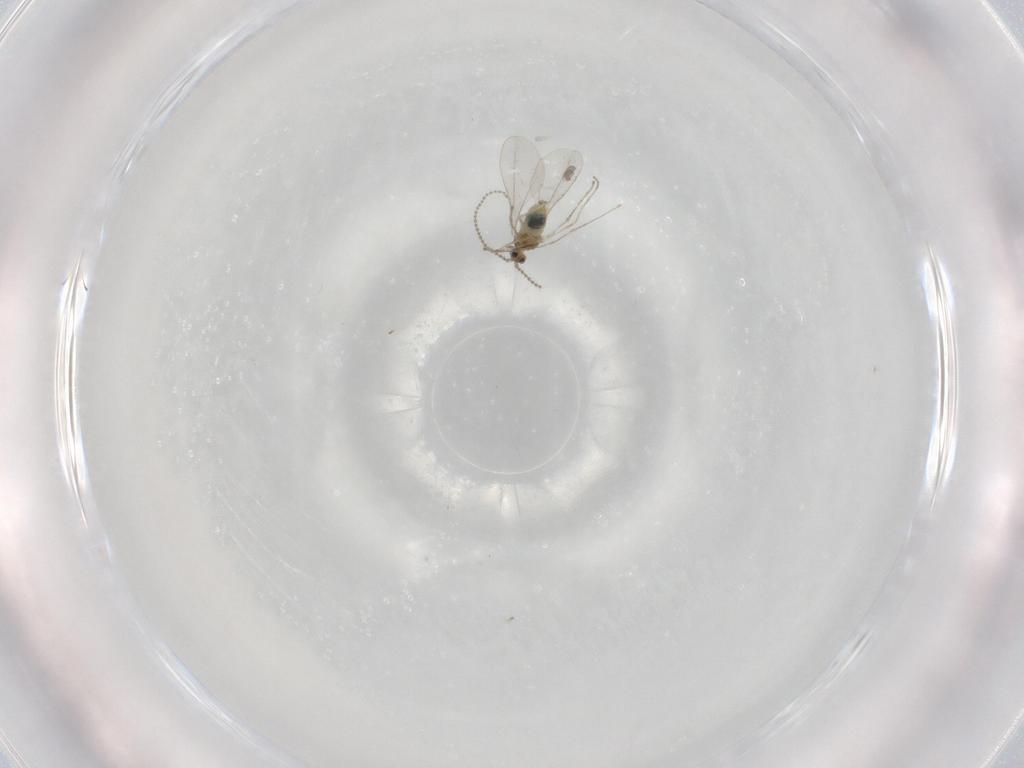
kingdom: Animalia
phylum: Arthropoda
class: Insecta
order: Diptera
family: Cecidomyiidae
